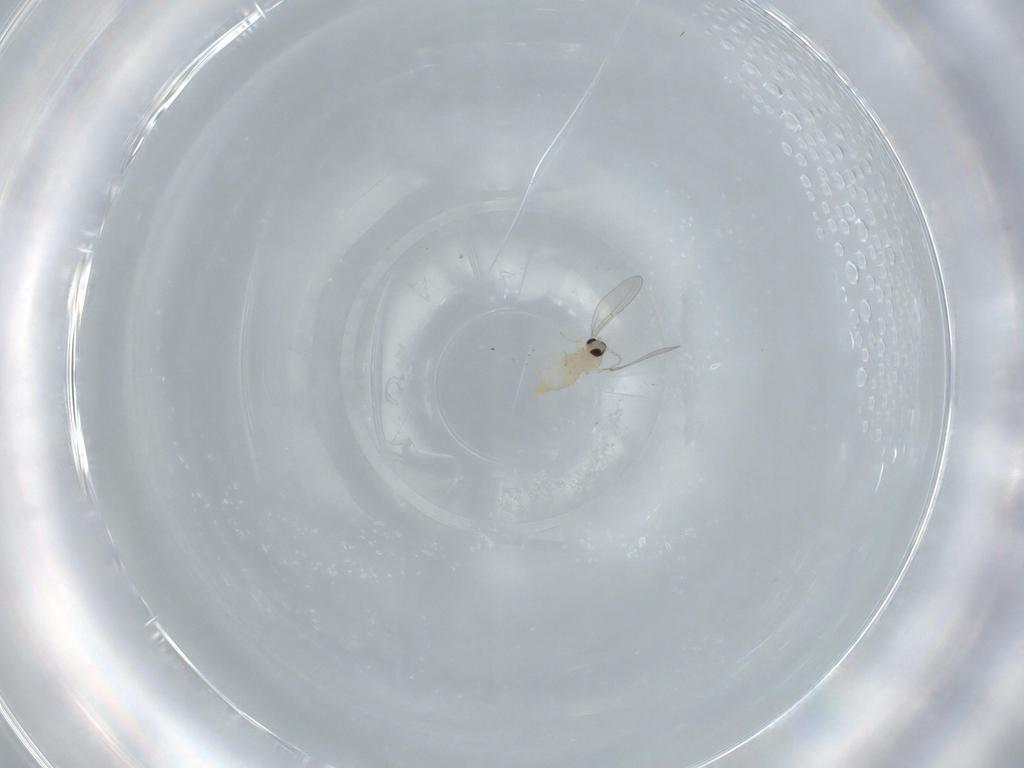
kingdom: Animalia
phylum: Arthropoda
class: Insecta
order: Diptera
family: Cecidomyiidae
